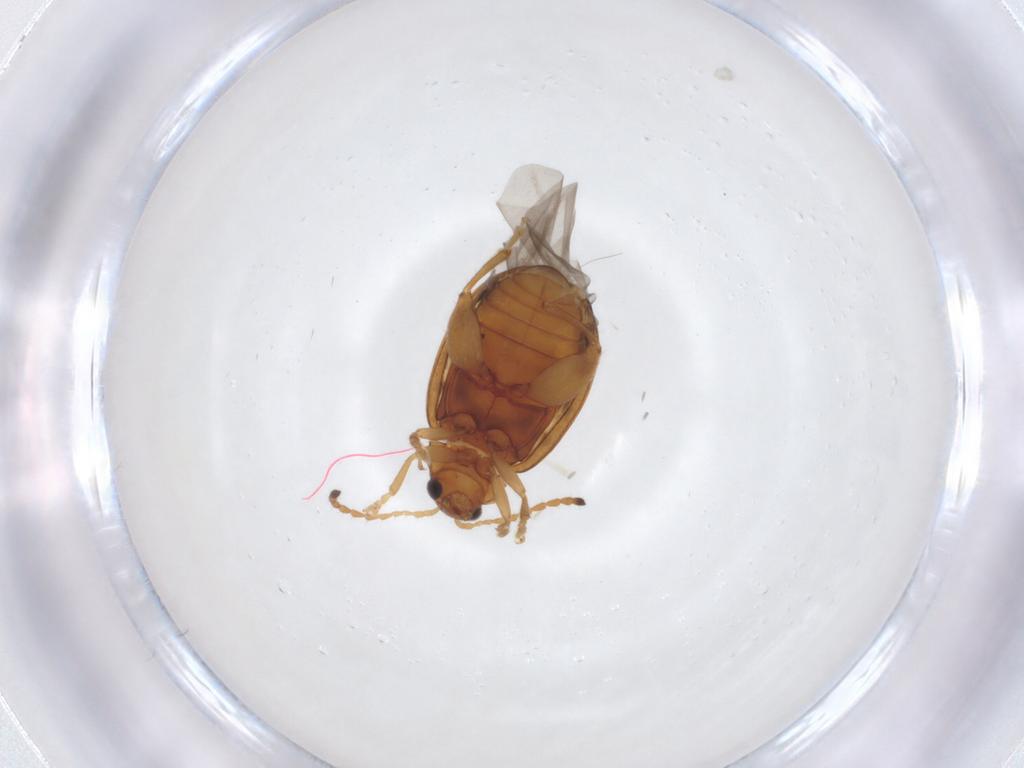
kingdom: Animalia
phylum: Arthropoda
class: Insecta
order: Coleoptera
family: Chrysomelidae
